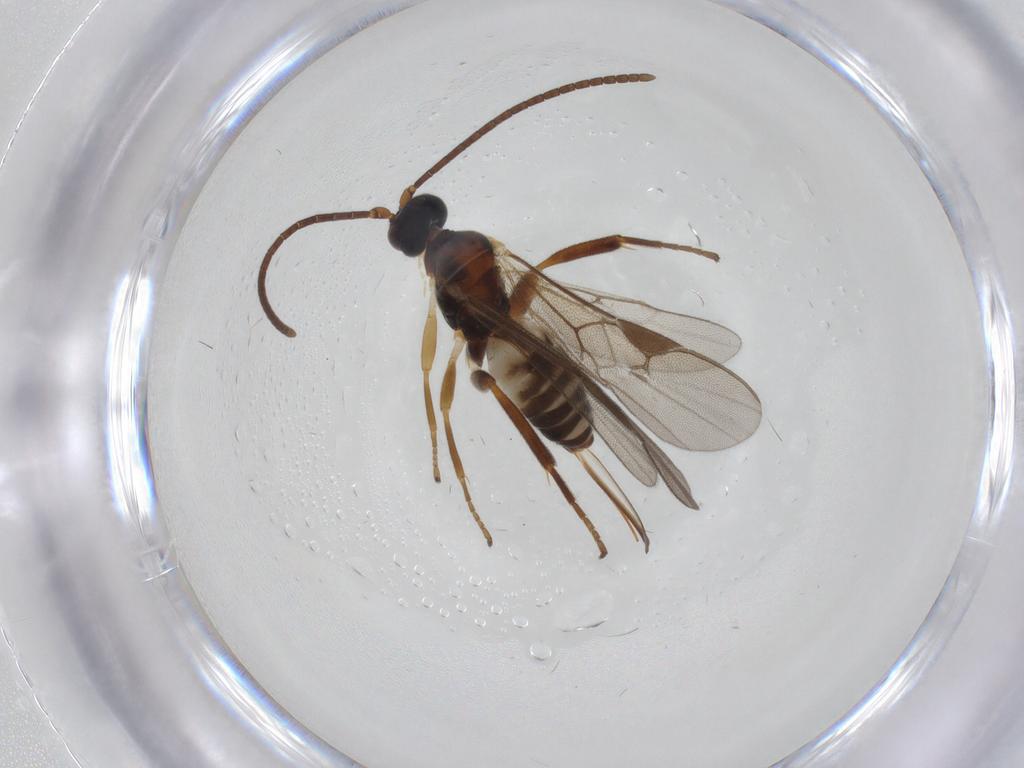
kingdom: Animalia
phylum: Arthropoda
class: Insecta
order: Hymenoptera
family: Braconidae
